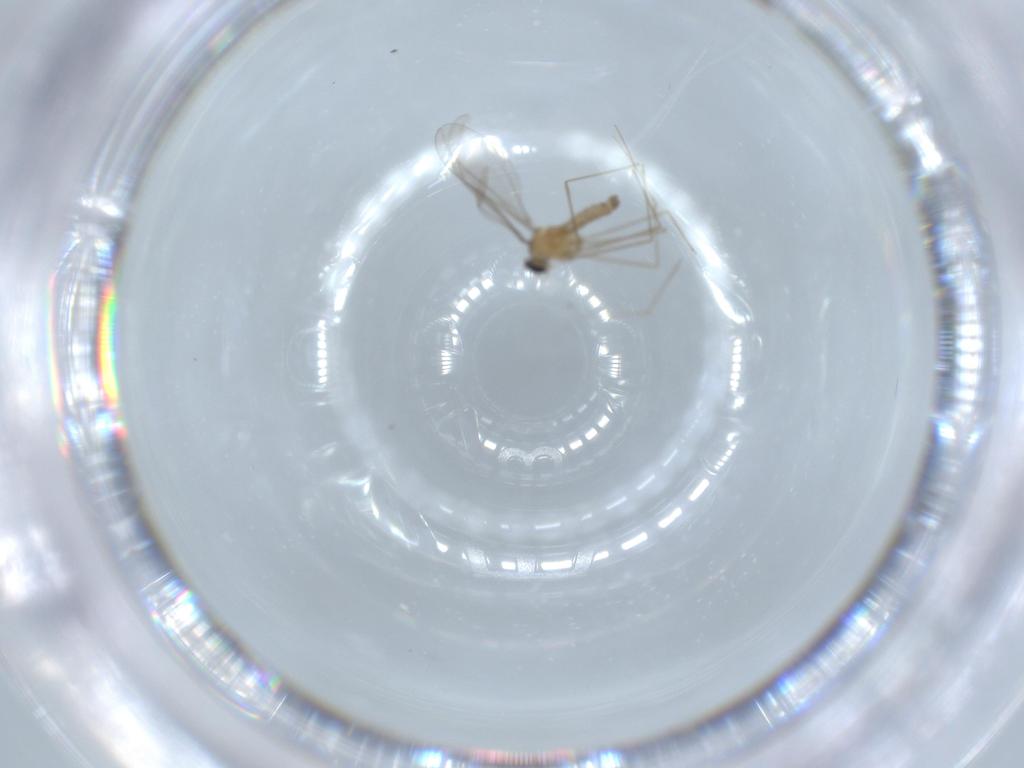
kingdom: Animalia
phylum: Arthropoda
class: Insecta
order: Diptera
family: Cecidomyiidae
